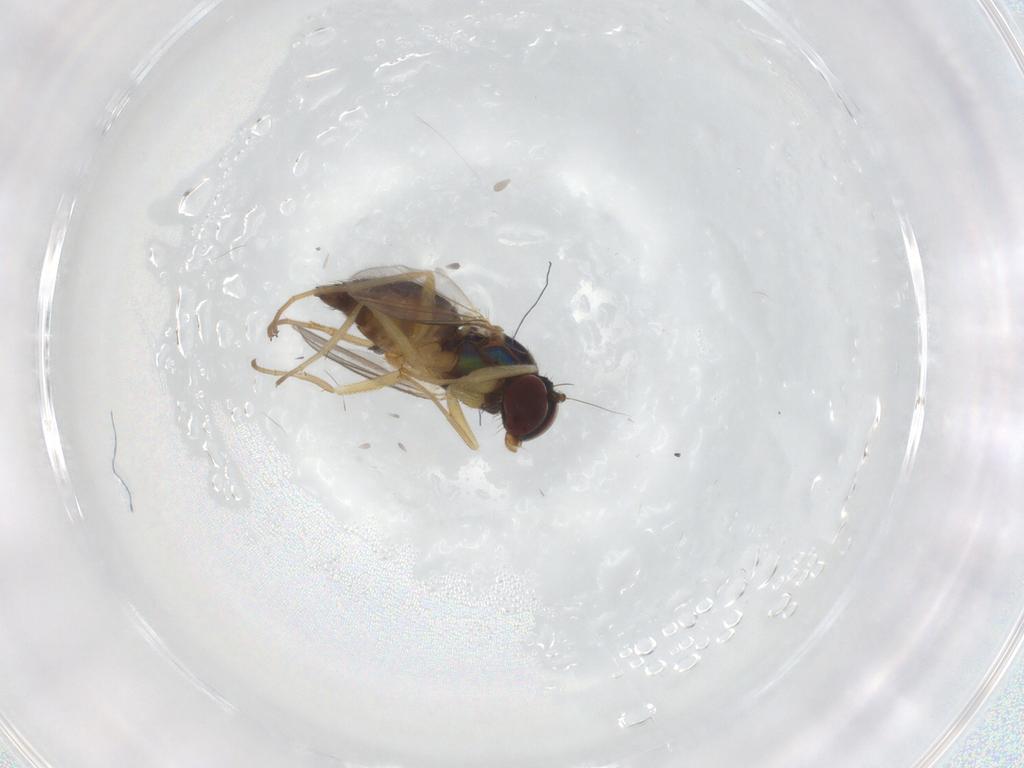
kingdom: Animalia
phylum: Arthropoda
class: Insecta
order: Diptera
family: Dolichopodidae
